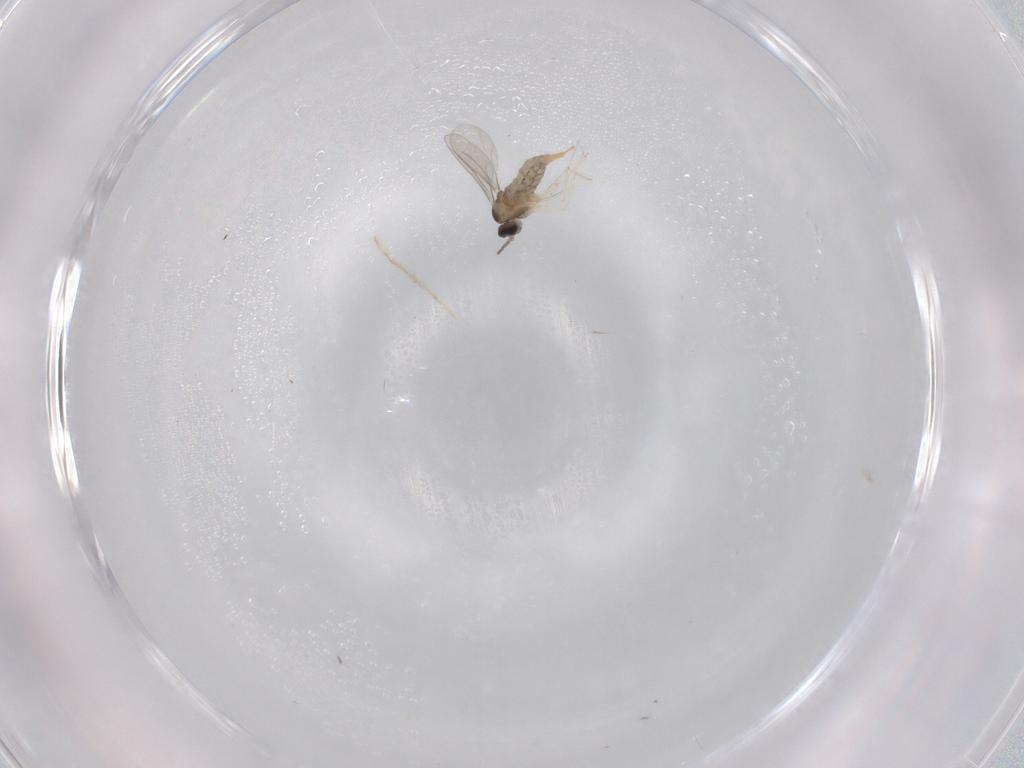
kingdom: Animalia
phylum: Arthropoda
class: Insecta
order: Diptera
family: Cecidomyiidae
